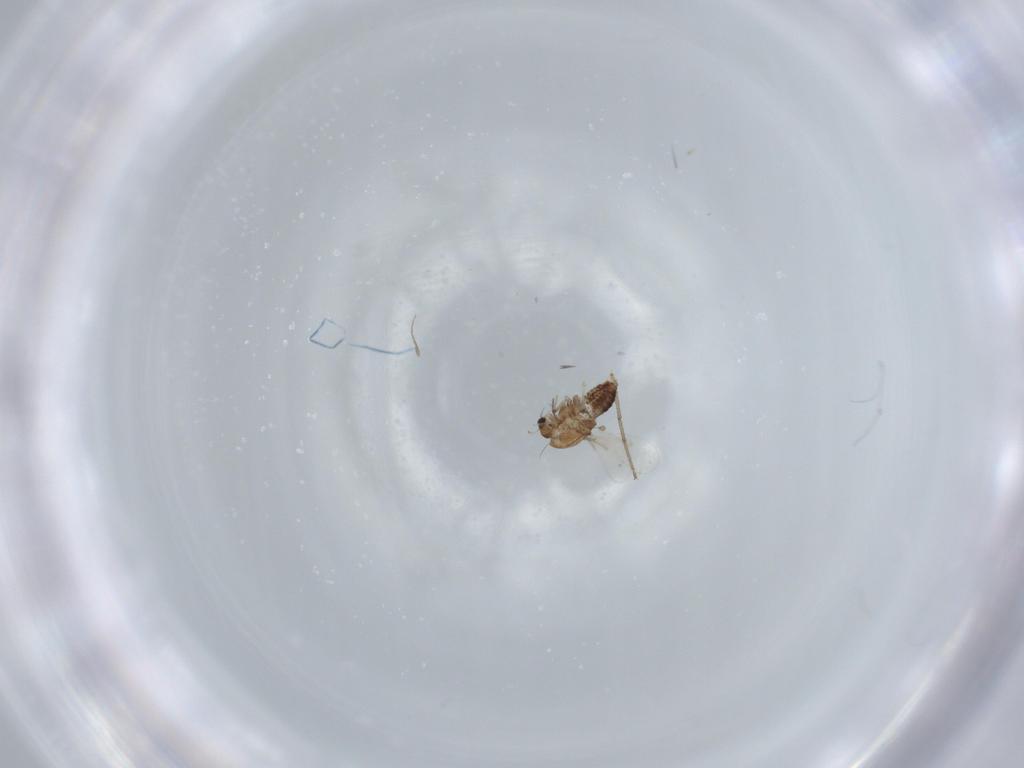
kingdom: Animalia
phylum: Arthropoda
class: Insecta
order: Diptera
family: Chironomidae
